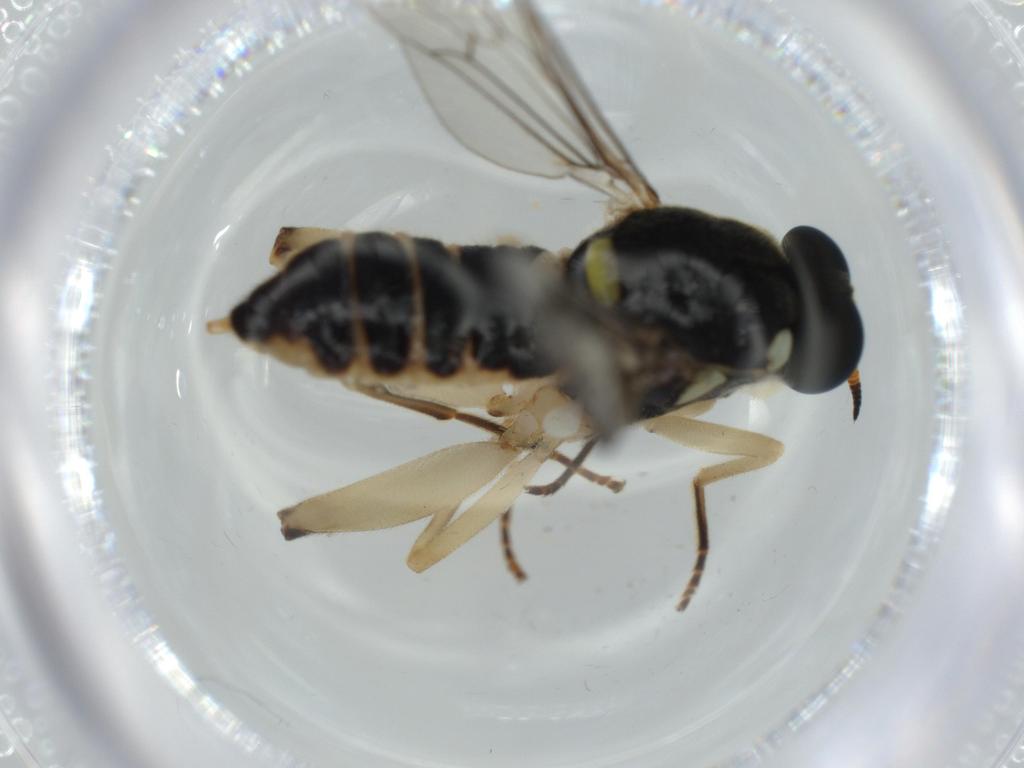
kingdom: Animalia
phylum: Arthropoda
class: Insecta
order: Diptera
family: Sciaridae
